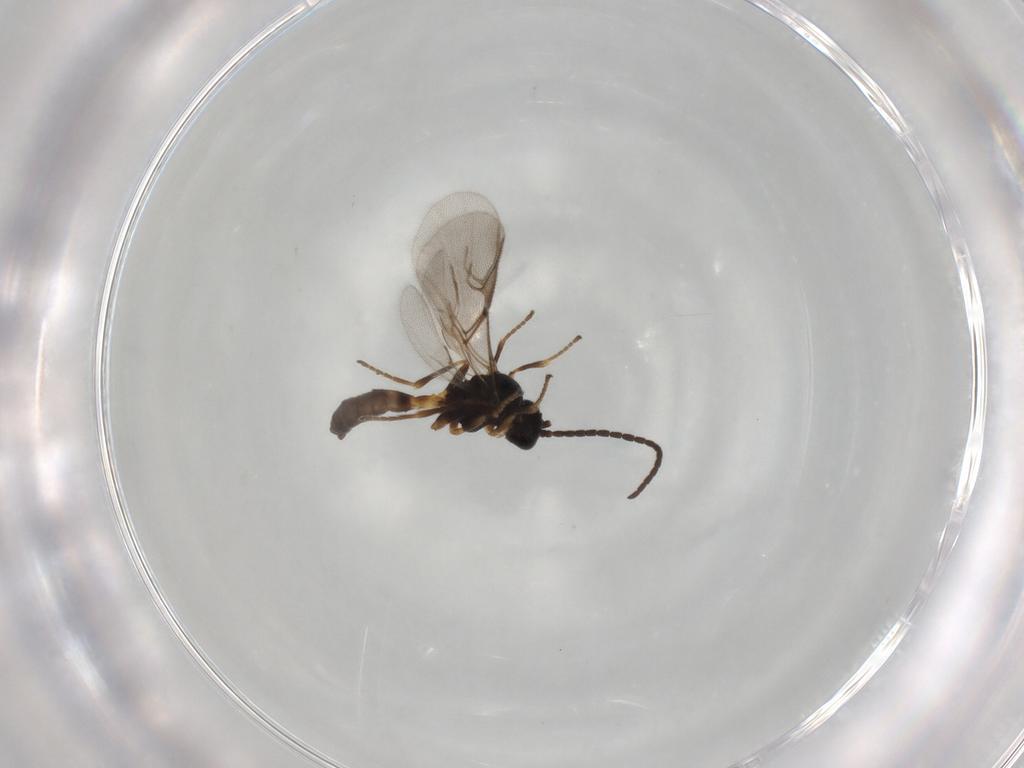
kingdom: Animalia
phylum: Arthropoda
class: Insecta
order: Hymenoptera
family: Braconidae
